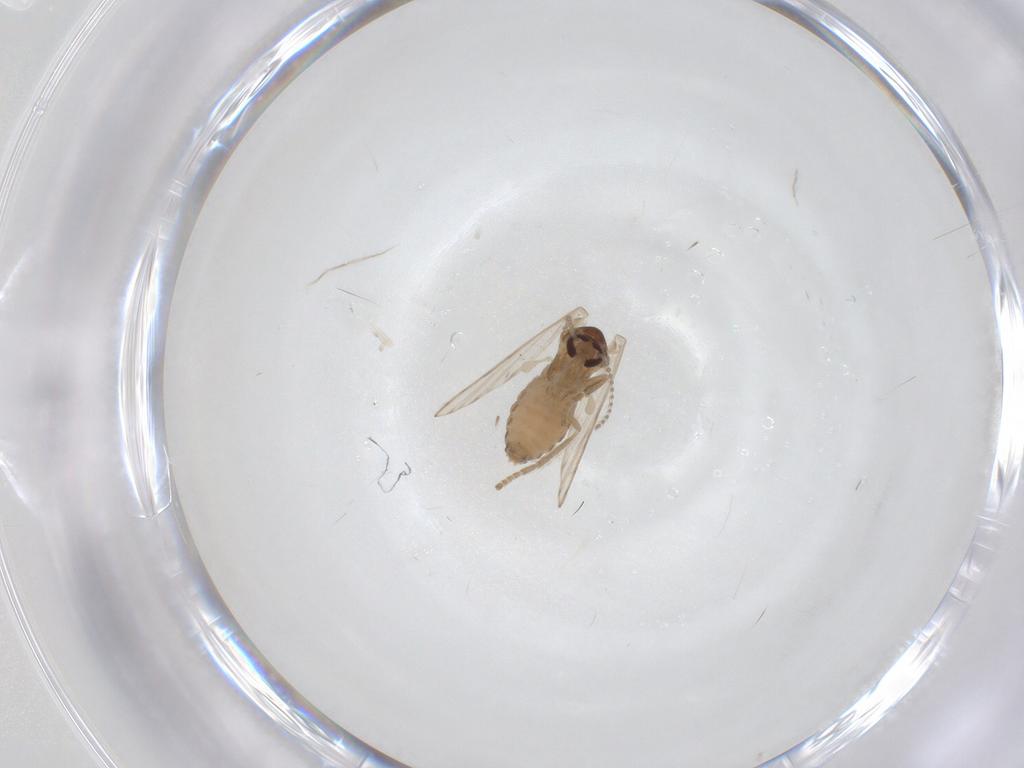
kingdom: Animalia
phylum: Arthropoda
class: Insecta
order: Diptera
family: Psychodidae
